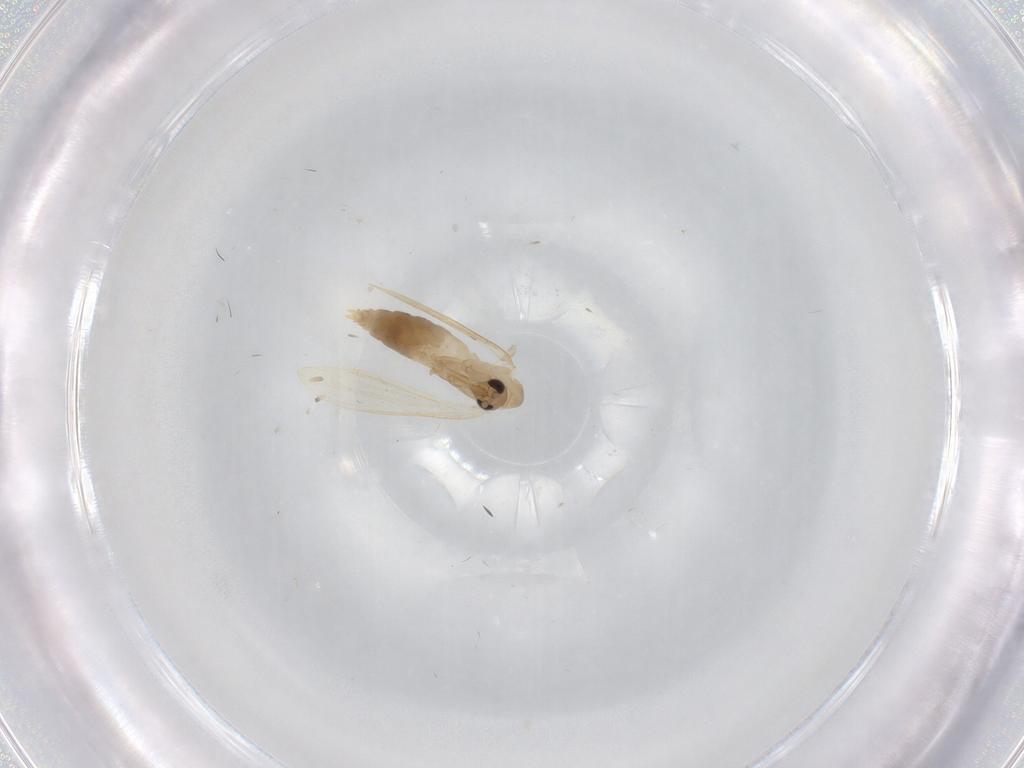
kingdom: Animalia
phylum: Arthropoda
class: Insecta
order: Diptera
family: Psychodidae
